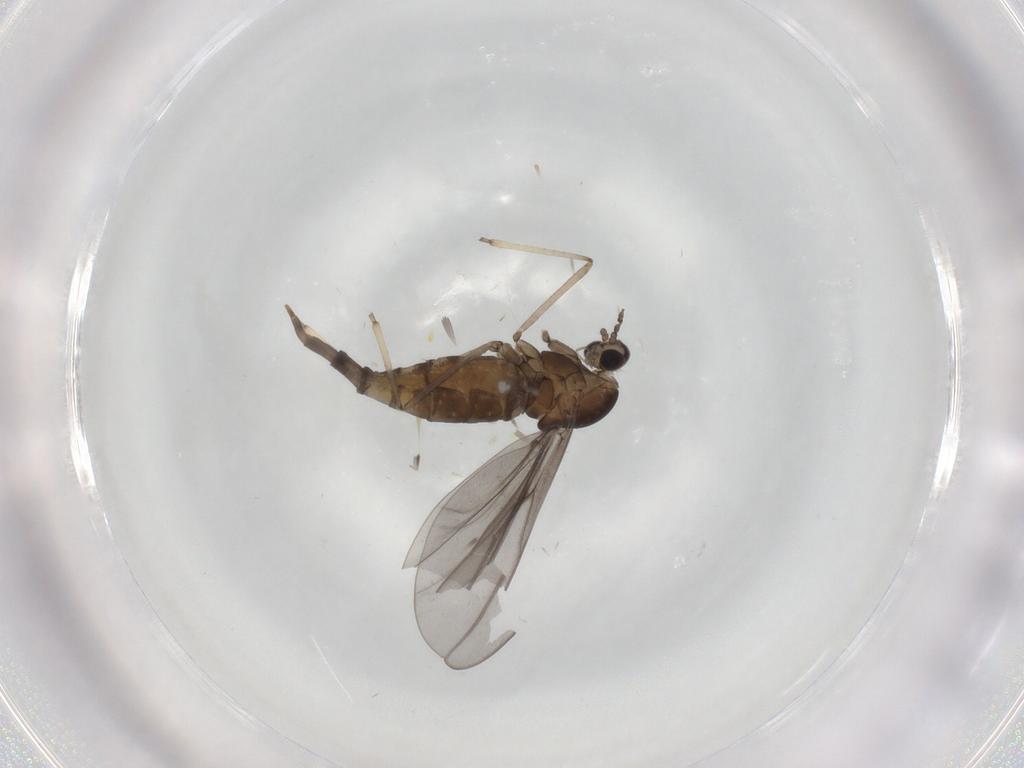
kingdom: Animalia
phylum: Arthropoda
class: Insecta
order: Diptera
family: Cecidomyiidae
